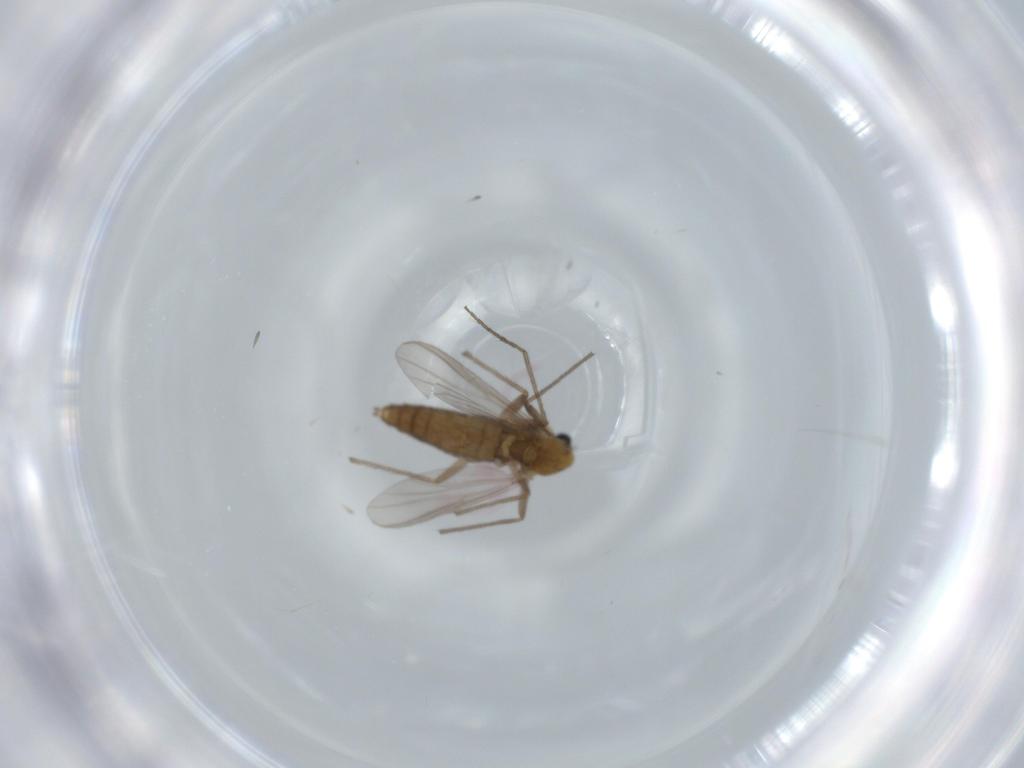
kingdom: Animalia
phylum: Arthropoda
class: Insecta
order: Diptera
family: Chironomidae
